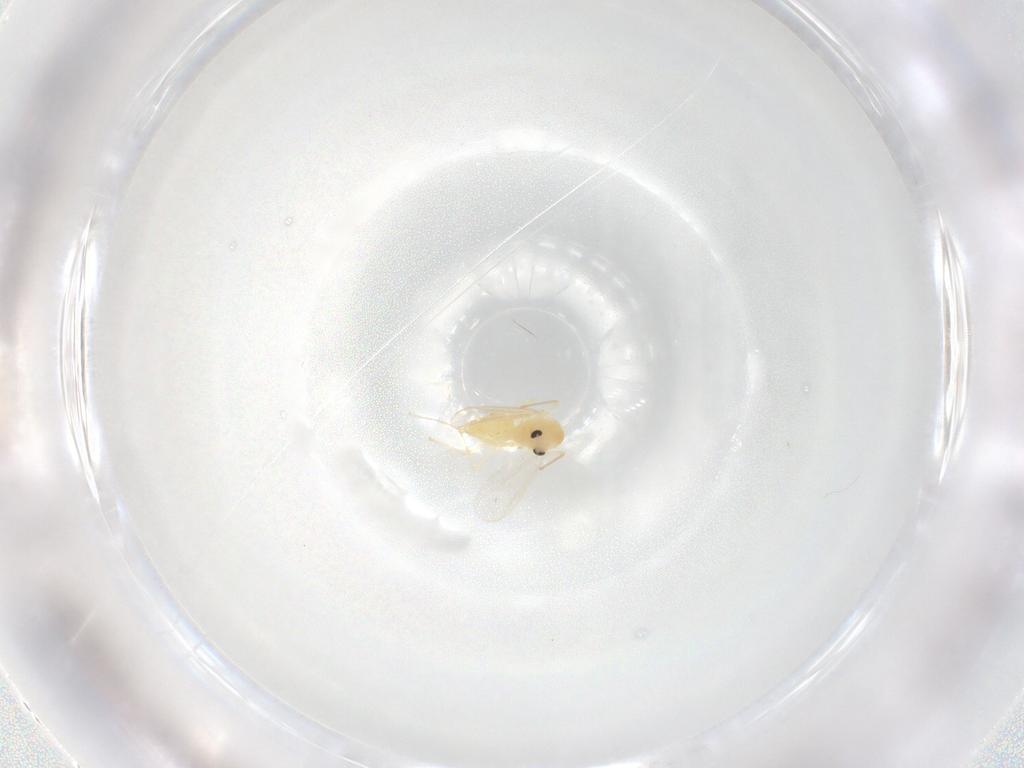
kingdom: Animalia
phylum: Arthropoda
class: Insecta
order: Diptera
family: Chironomidae
